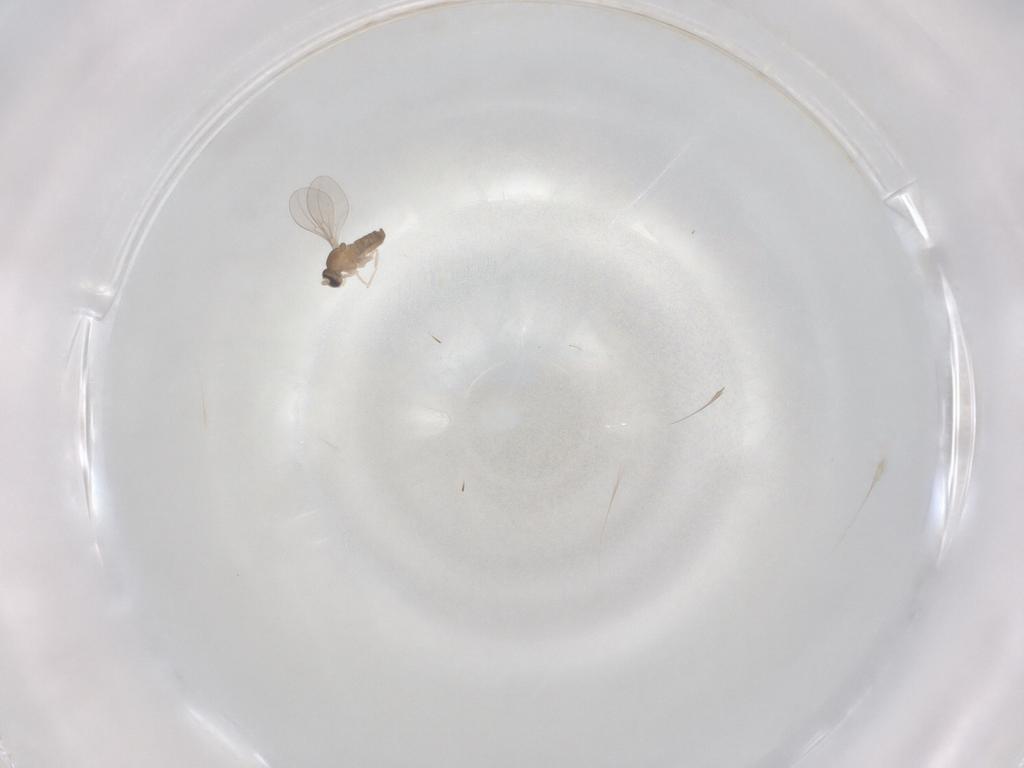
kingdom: Animalia
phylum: Arthropoda
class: Insecta
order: Diptera
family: Cecidomyiidae
